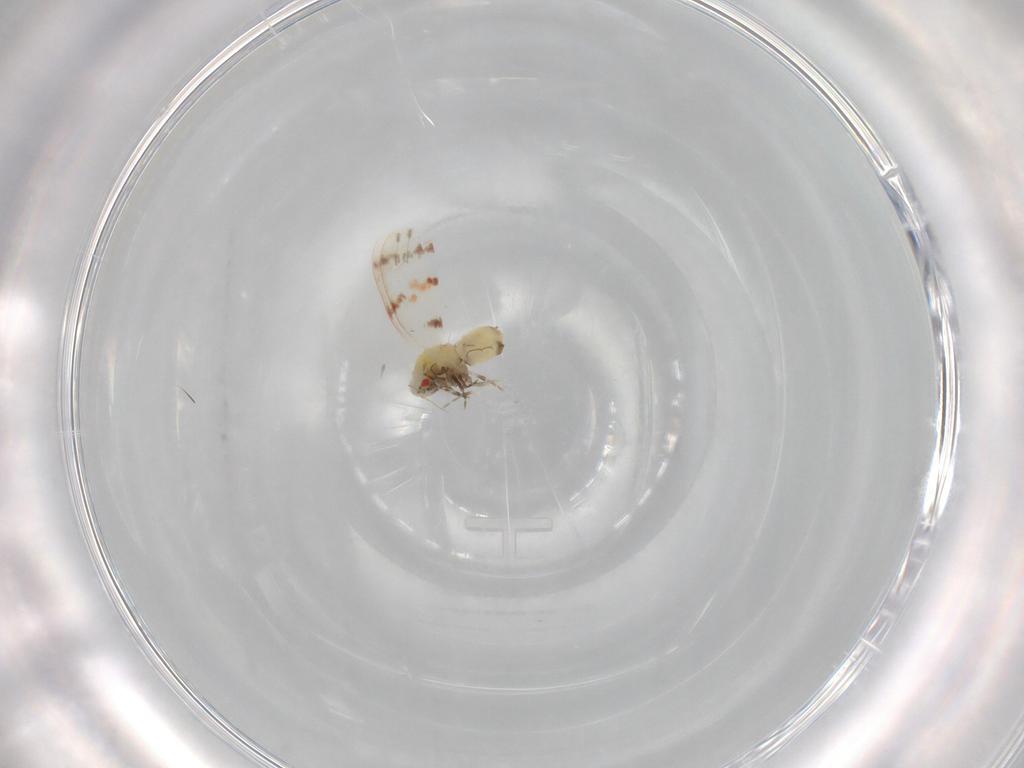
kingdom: Animalia
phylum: Arthropoda
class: Insecta
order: Hemiptera
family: Aleyrodidae
